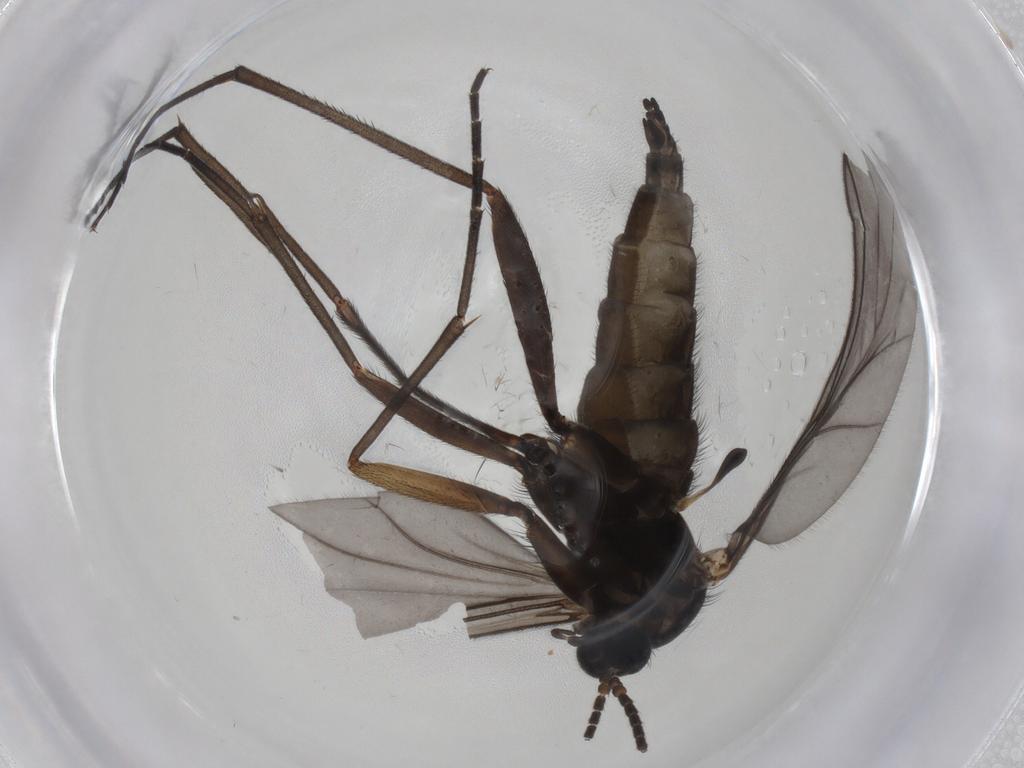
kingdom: Animalia
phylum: Arthropoda
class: Insecta
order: Diptera
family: Sciaridae
